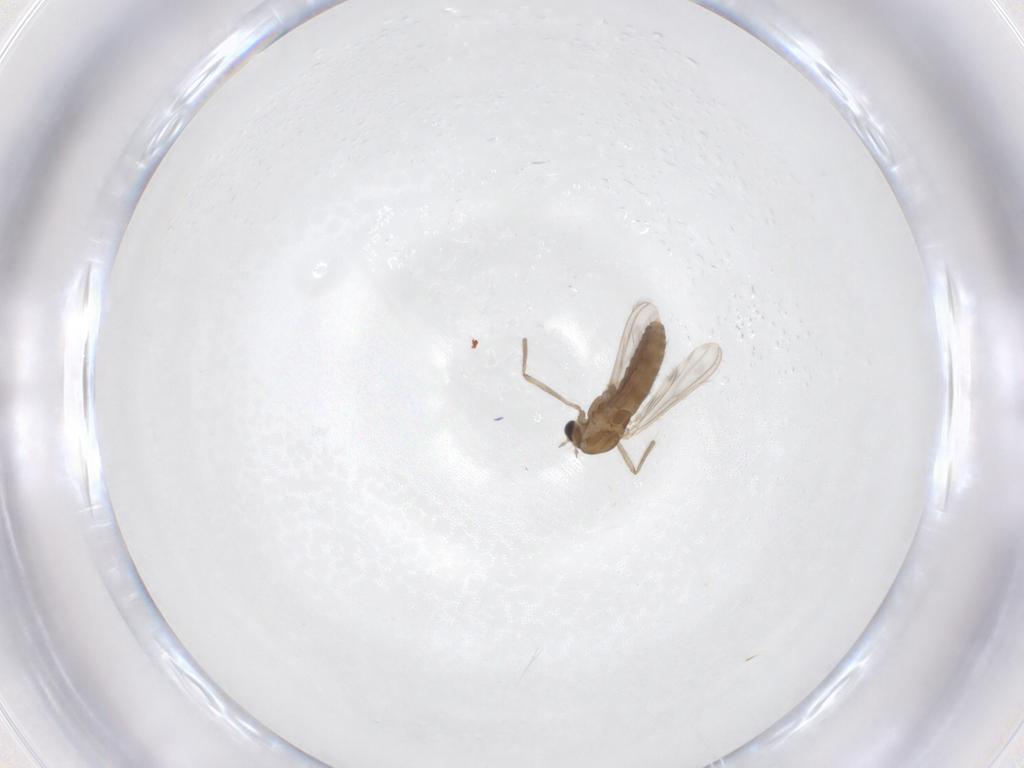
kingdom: Animalia
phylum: Arthropoda
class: Insecta
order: Diptera
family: Chironomidae
